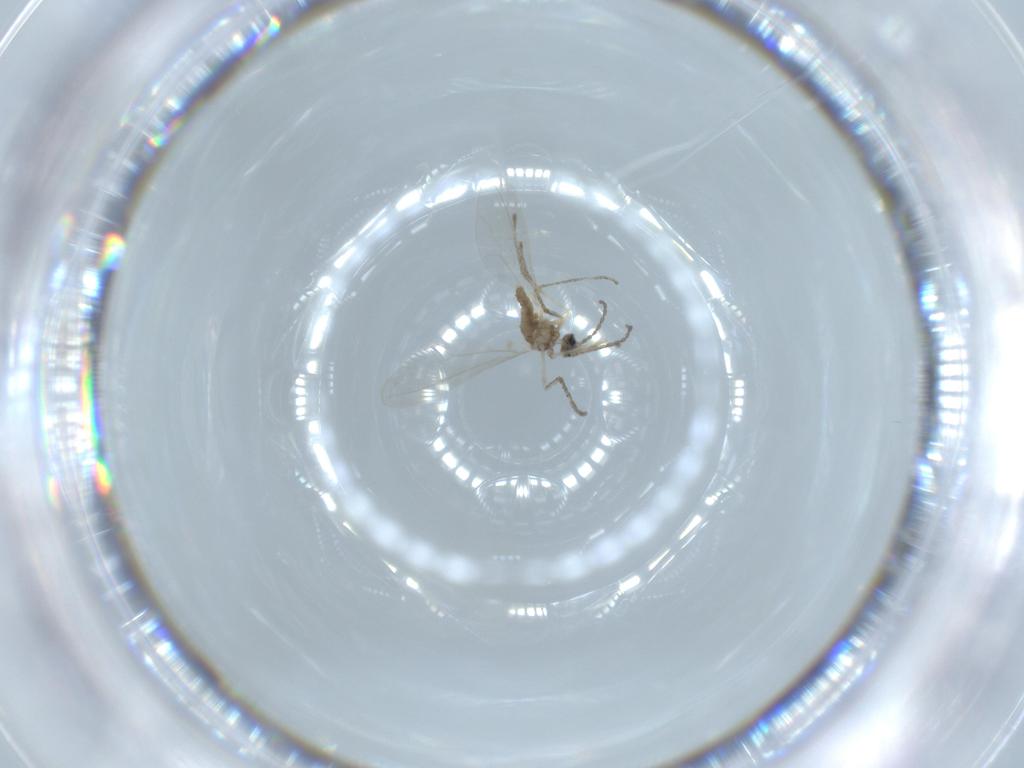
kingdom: Animalia
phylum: Arthropoda
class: Insecta
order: Diptera
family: Cecidomyiidae
